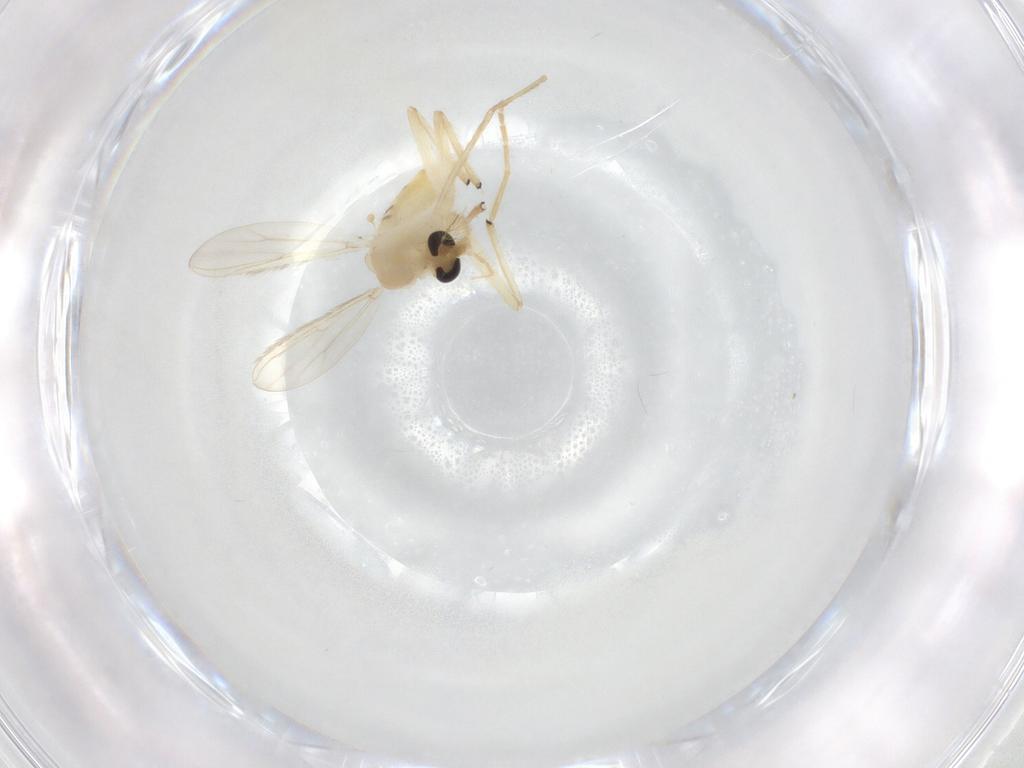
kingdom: Animalia
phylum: Arthropoda
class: Insecta
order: Diptera
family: Chironomidae
